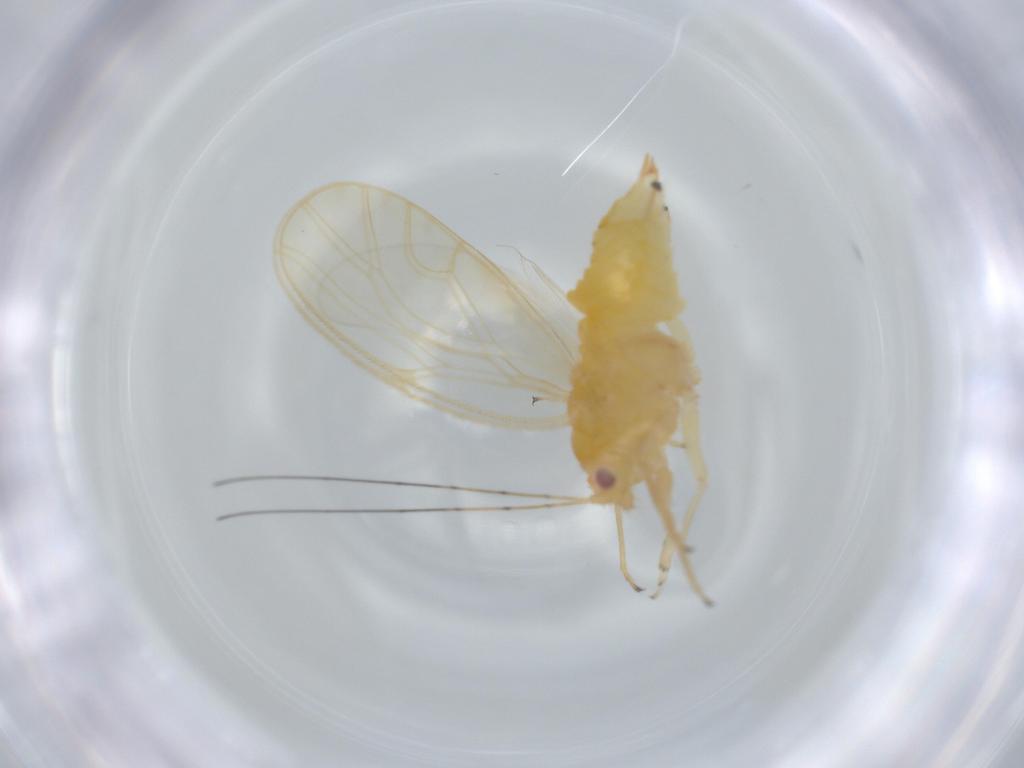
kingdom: Animalia
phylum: Arthropoda
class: Insecta
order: Hemiptera
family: Psyllidae
